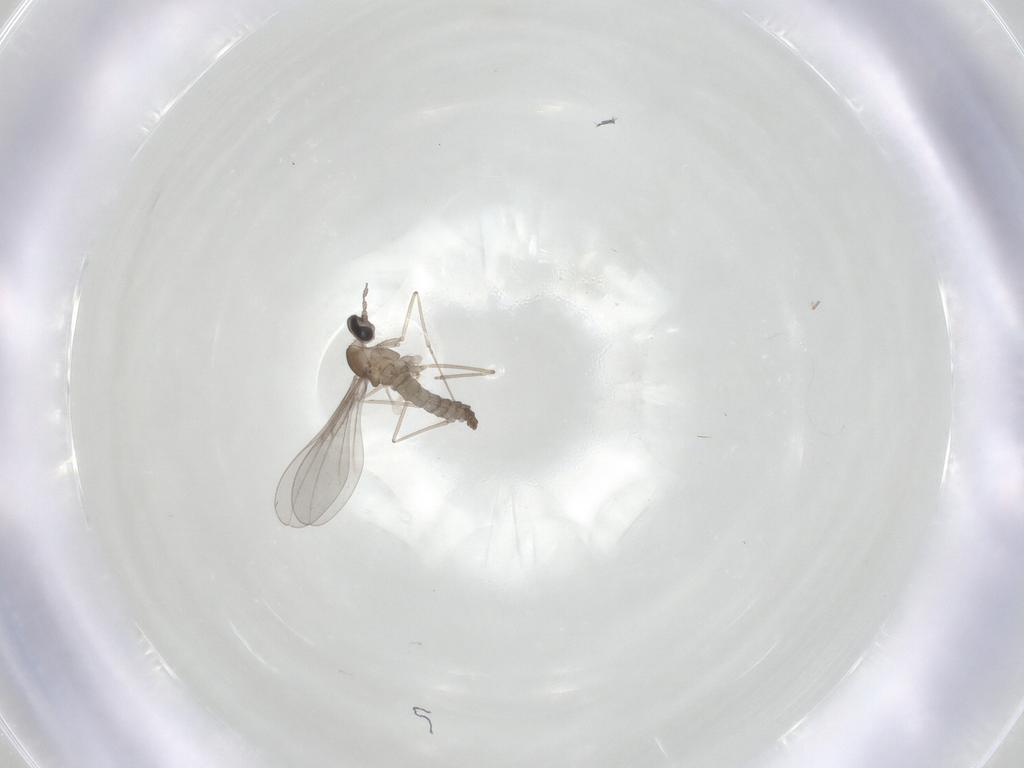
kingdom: Animalia
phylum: Arthropoda
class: Insecta
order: Diptera
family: Cecidomyiidae
